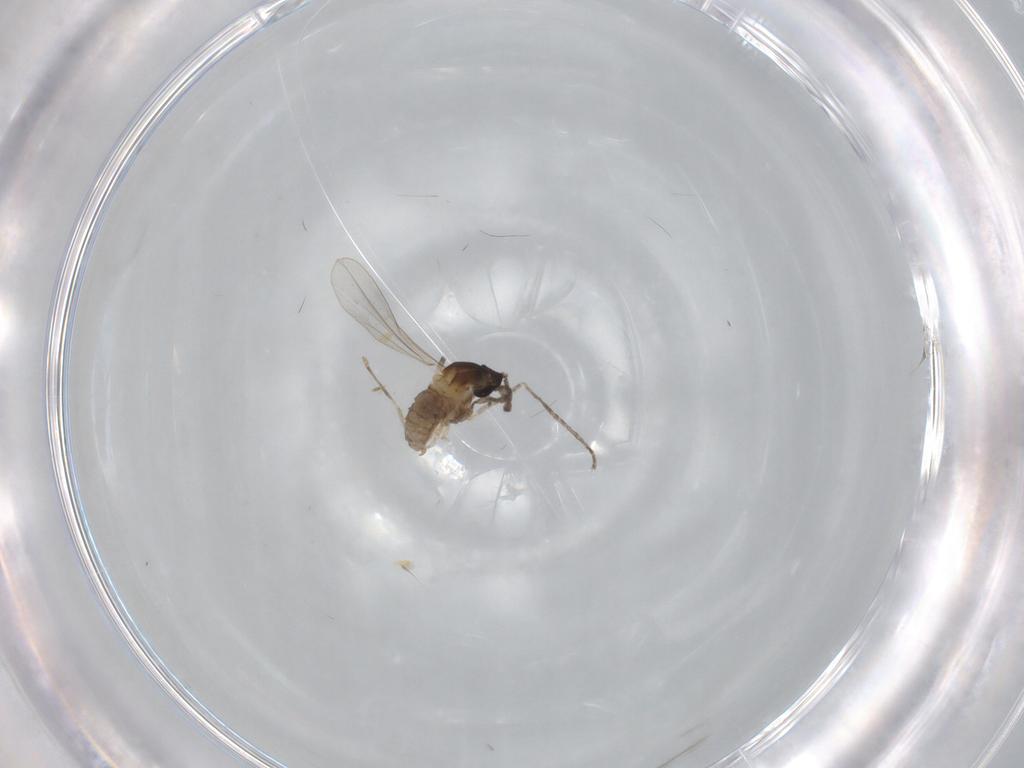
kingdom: Animalia
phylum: Arthropoda
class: Insecta
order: Diptera
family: Cecidomyiidae
